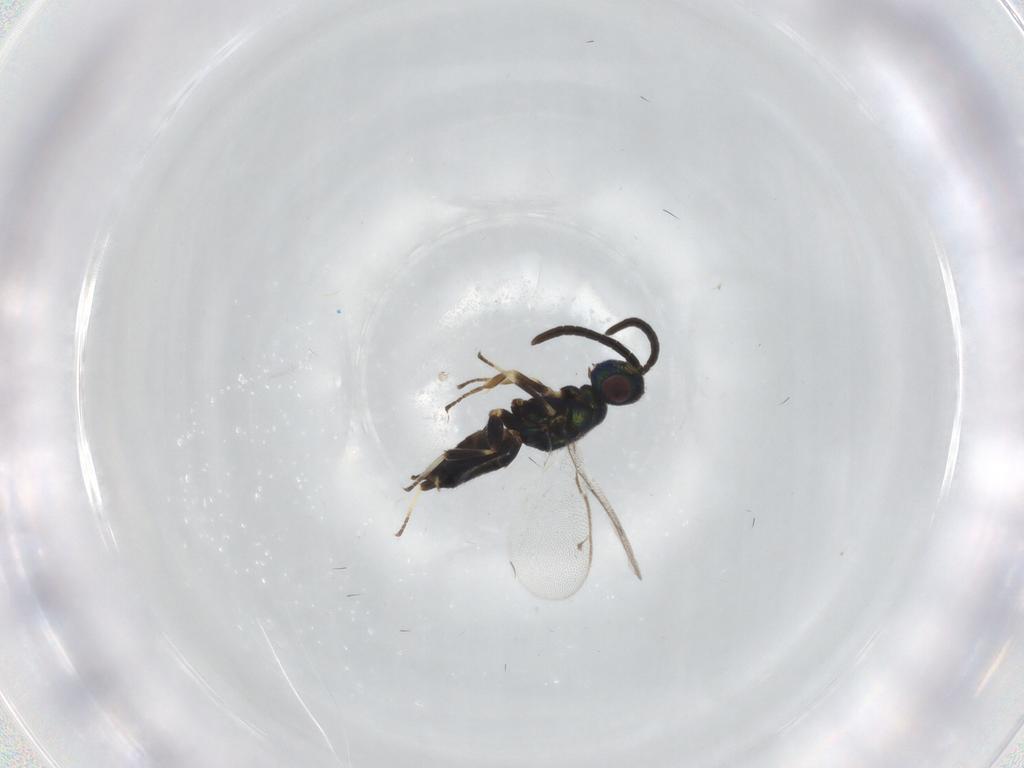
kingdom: Animalia
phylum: Arthropoda
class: Insecta
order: Hymenoptera
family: Eupelmidae
